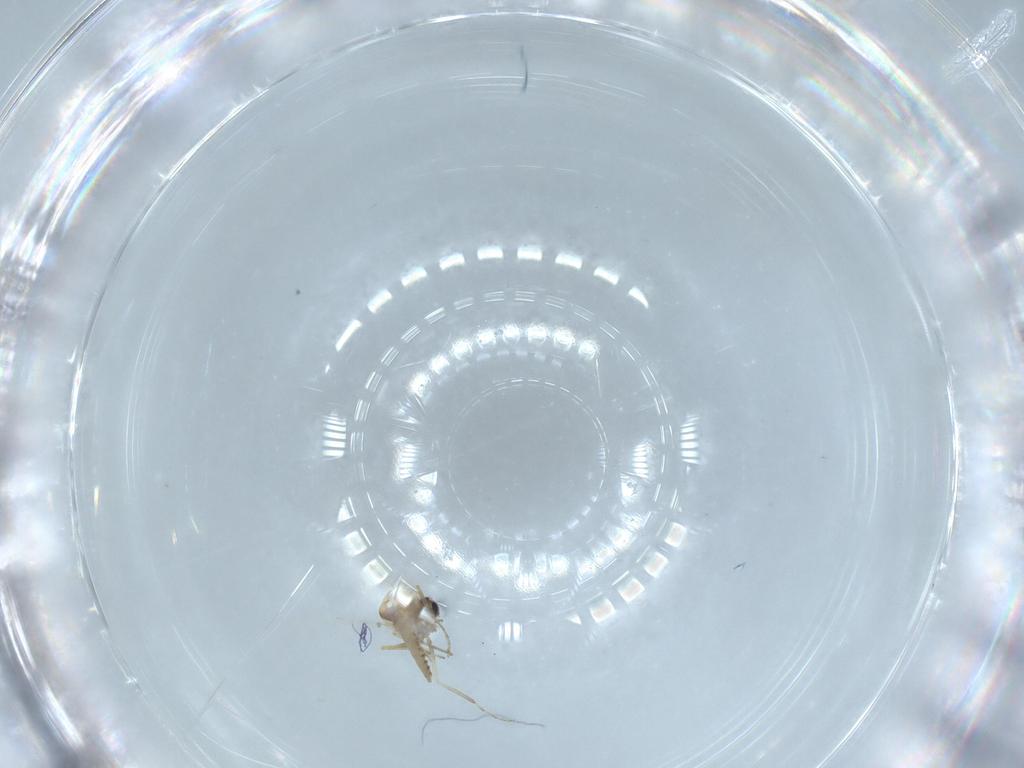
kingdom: Animalia
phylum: Arthropoda
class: Insecta
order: Diptera
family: Ceratopogonidae
